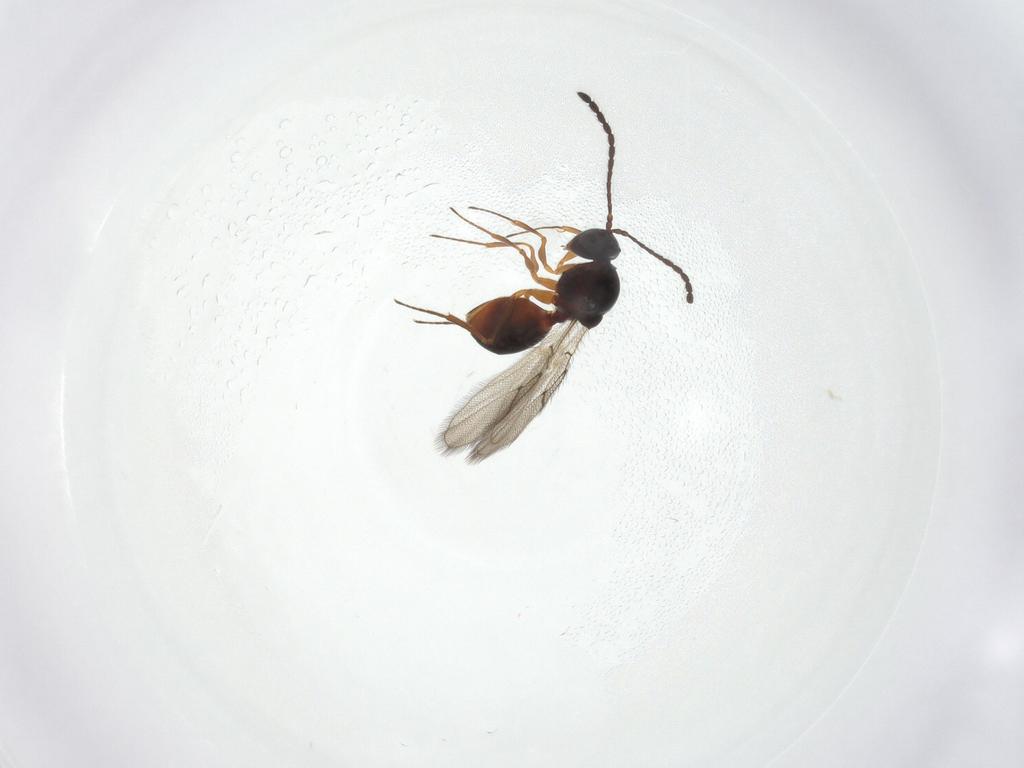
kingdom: Animalia
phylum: Arthropoda
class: Insecta
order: Hymenoptera
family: Figitidae
